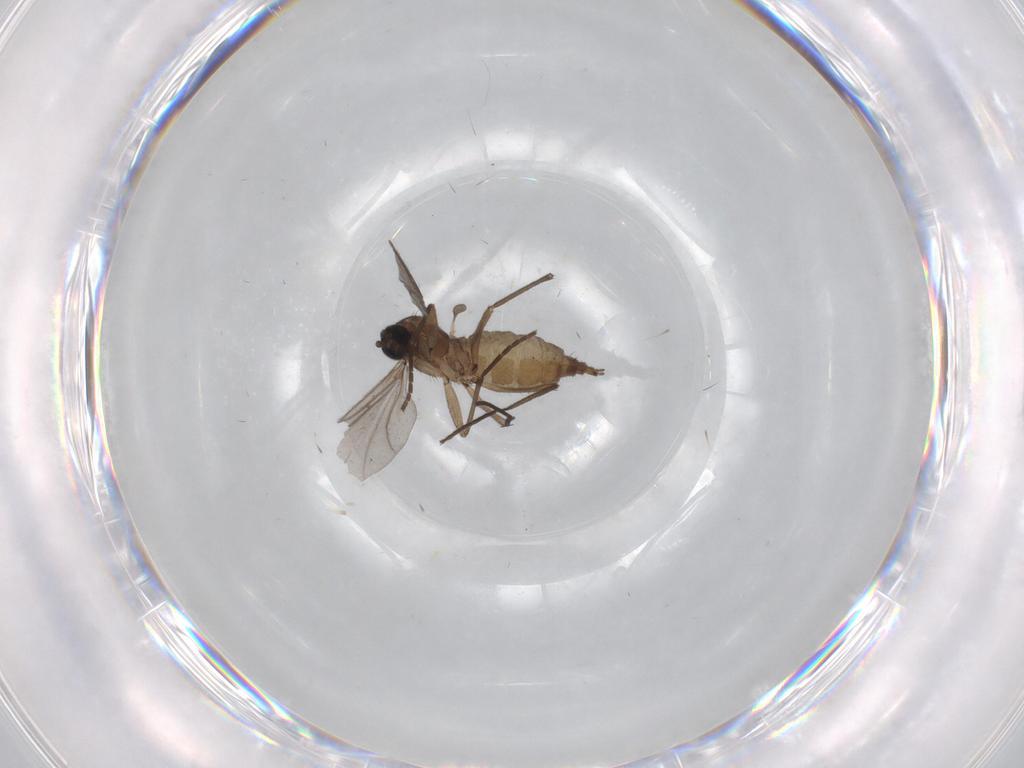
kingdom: Animalia
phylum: Arthropoda
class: Insecta
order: Diptera
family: Sciaridae
